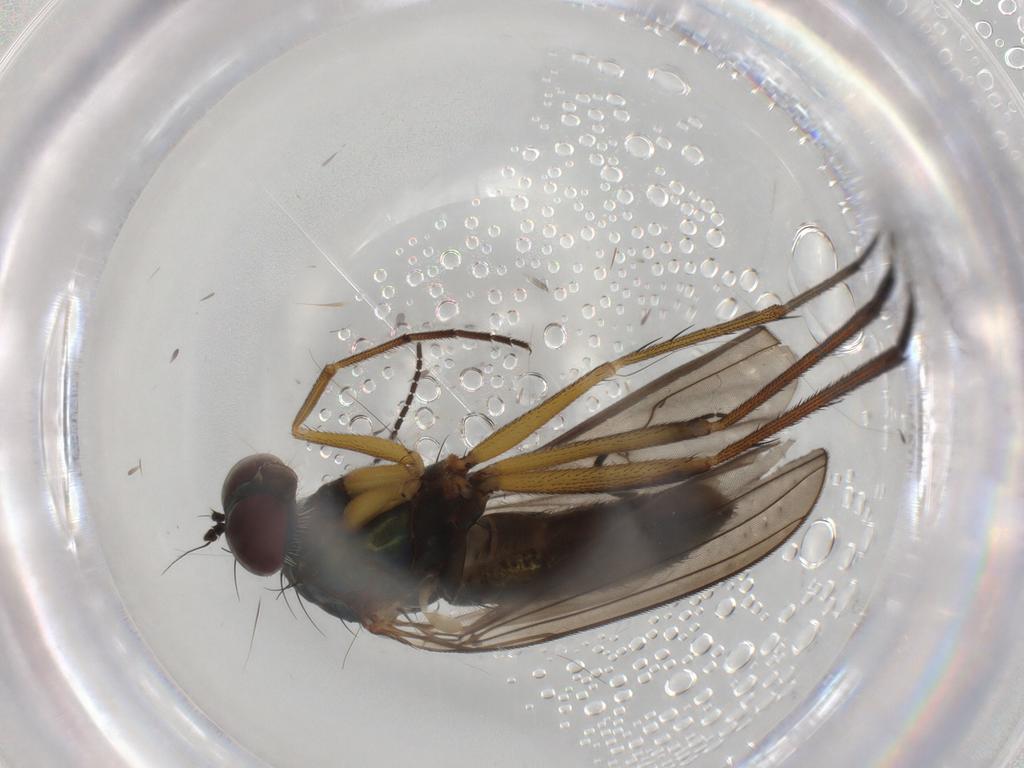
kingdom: Animalia
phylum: Arthropoda
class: Insecta
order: Diptera
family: Dolichopodidae
